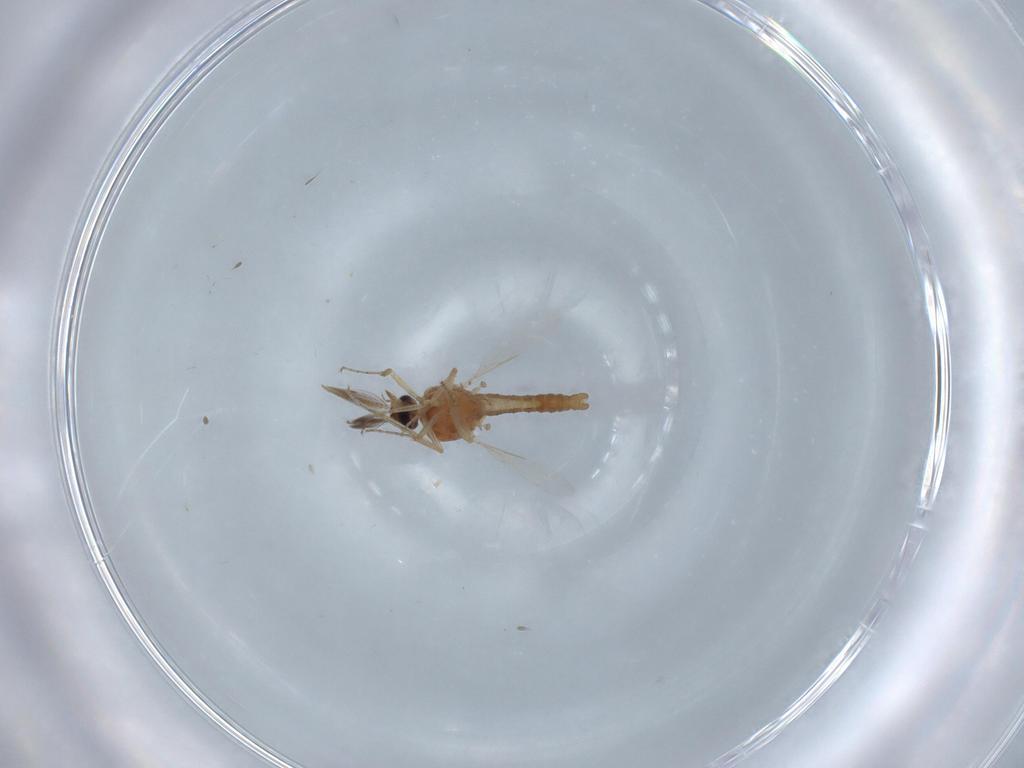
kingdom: Animalia
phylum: Arthropoda
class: Insecta
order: Diptera
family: Ceratopogonidae
